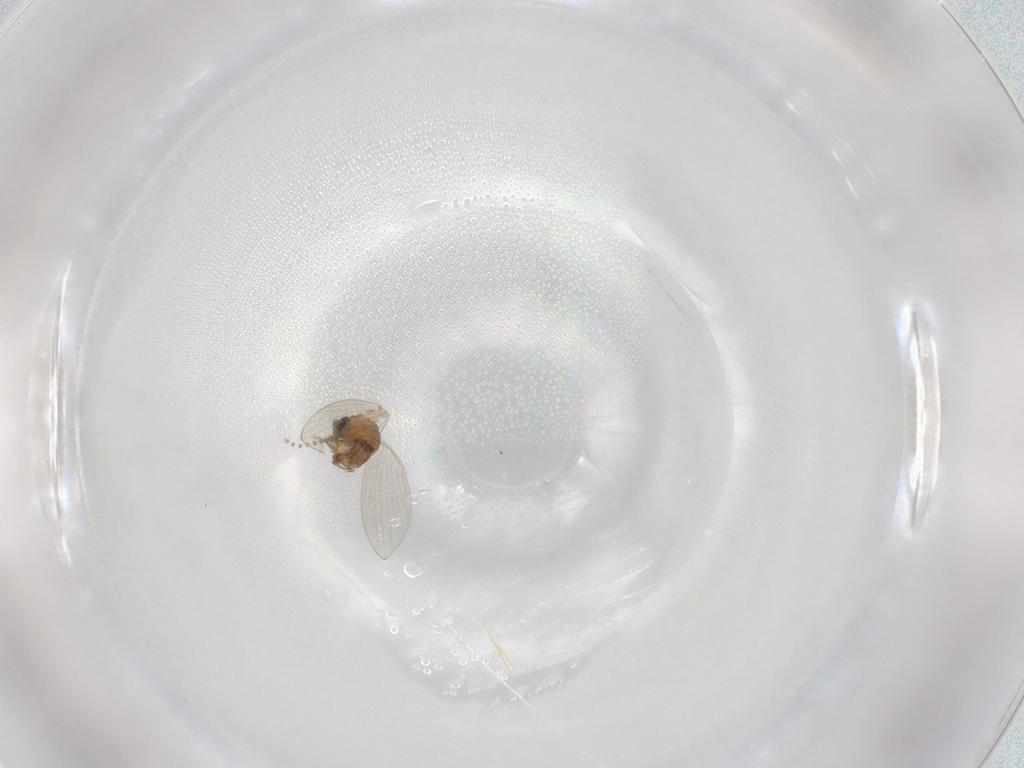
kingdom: Animalia
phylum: Arthropoda
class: Insecta
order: Diptera
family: Psychodidae
